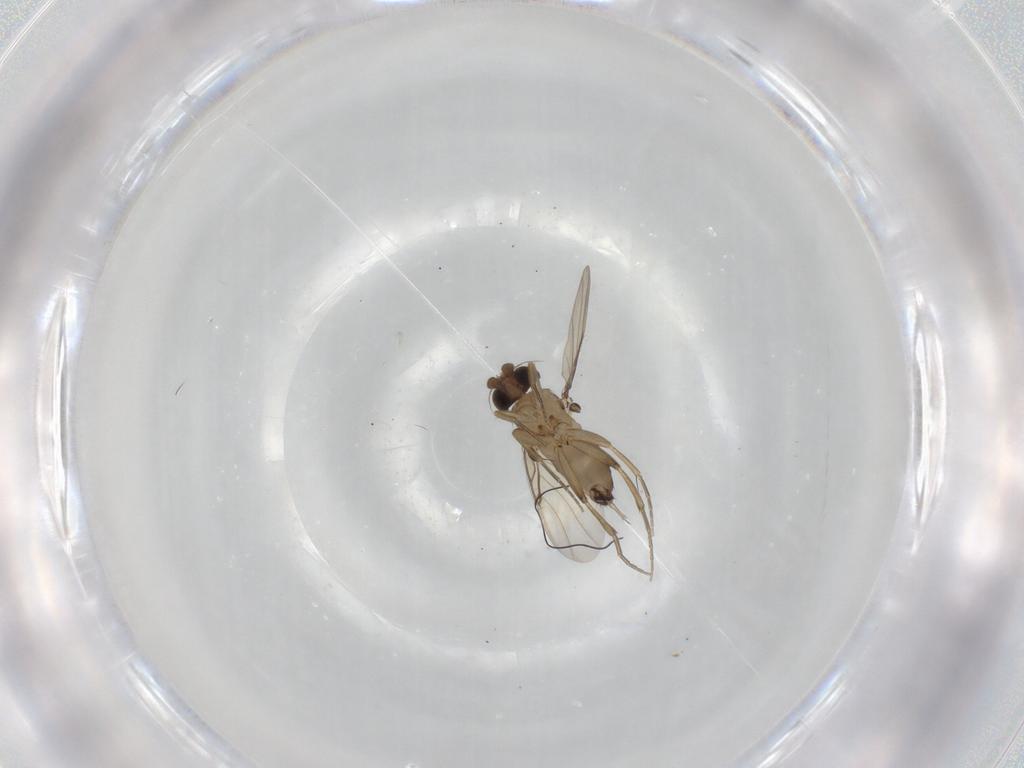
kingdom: Animalia
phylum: Arthropoda
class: Insecta
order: Diptera
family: Phoridae
